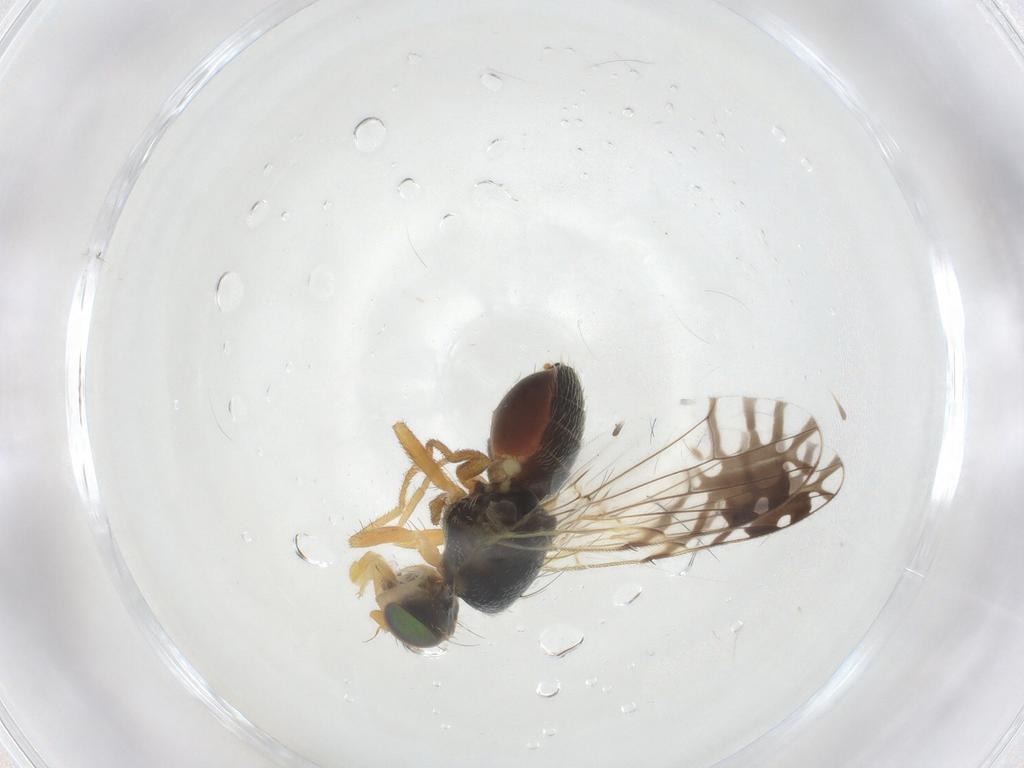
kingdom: Animalia
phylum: Arthropoda
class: Insecta
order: Diptera
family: Tephritidae
